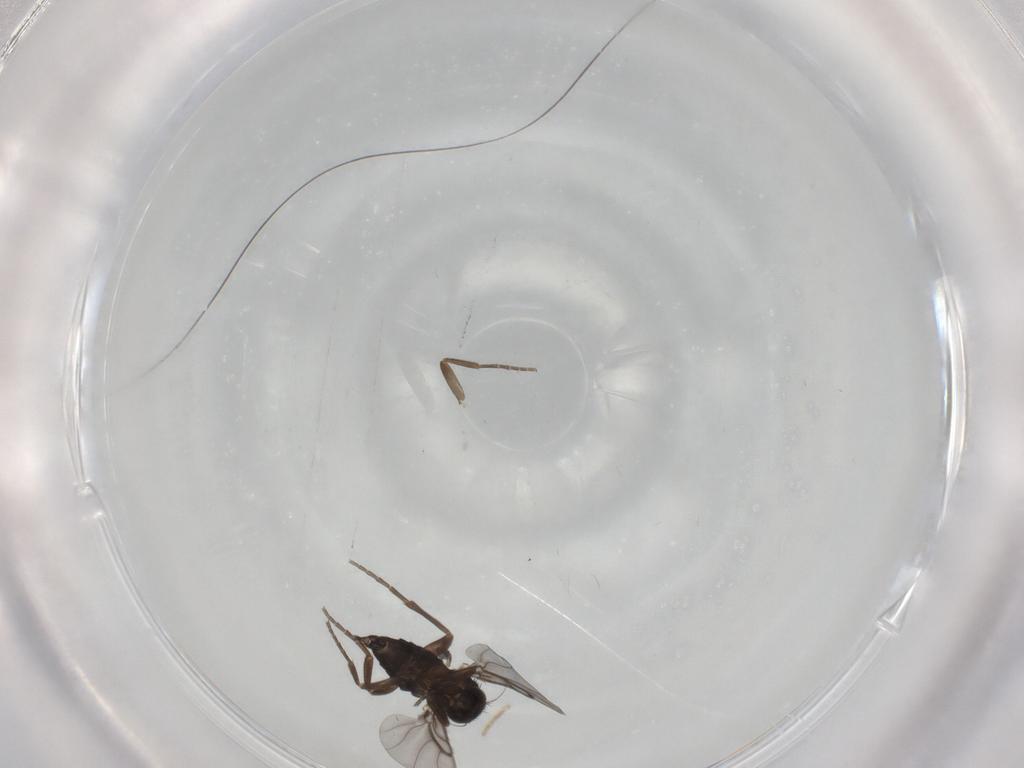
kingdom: Animalia
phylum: Arthropoda
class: Insecta
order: Diptera
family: Phoridae
